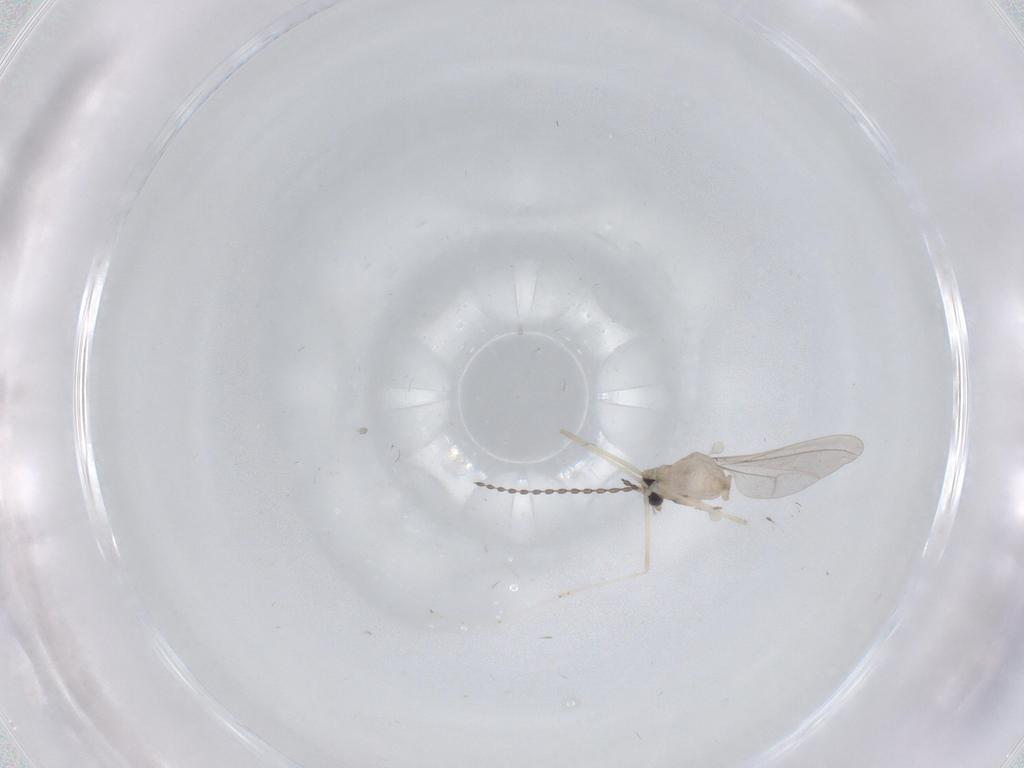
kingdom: Animalia
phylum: Arthropoda
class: Insecta
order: Diptera
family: Cecidomyiidae
